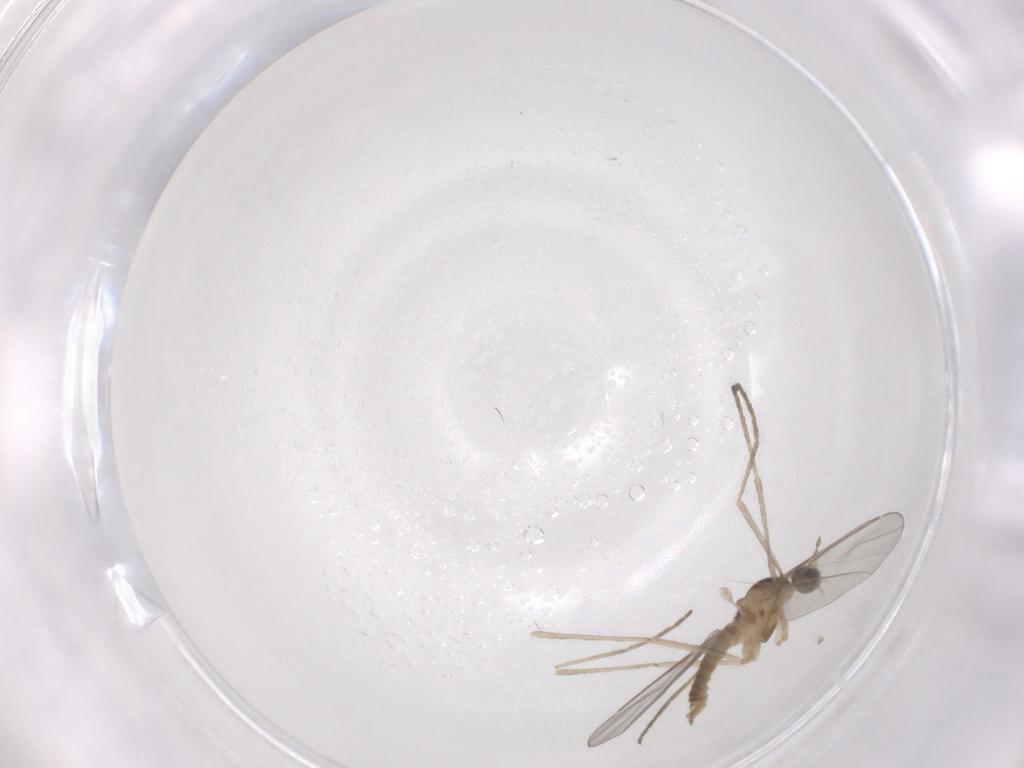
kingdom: Animalia
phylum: Arthropoda
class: Insecta
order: Diptera
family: Cecidomyiidae
